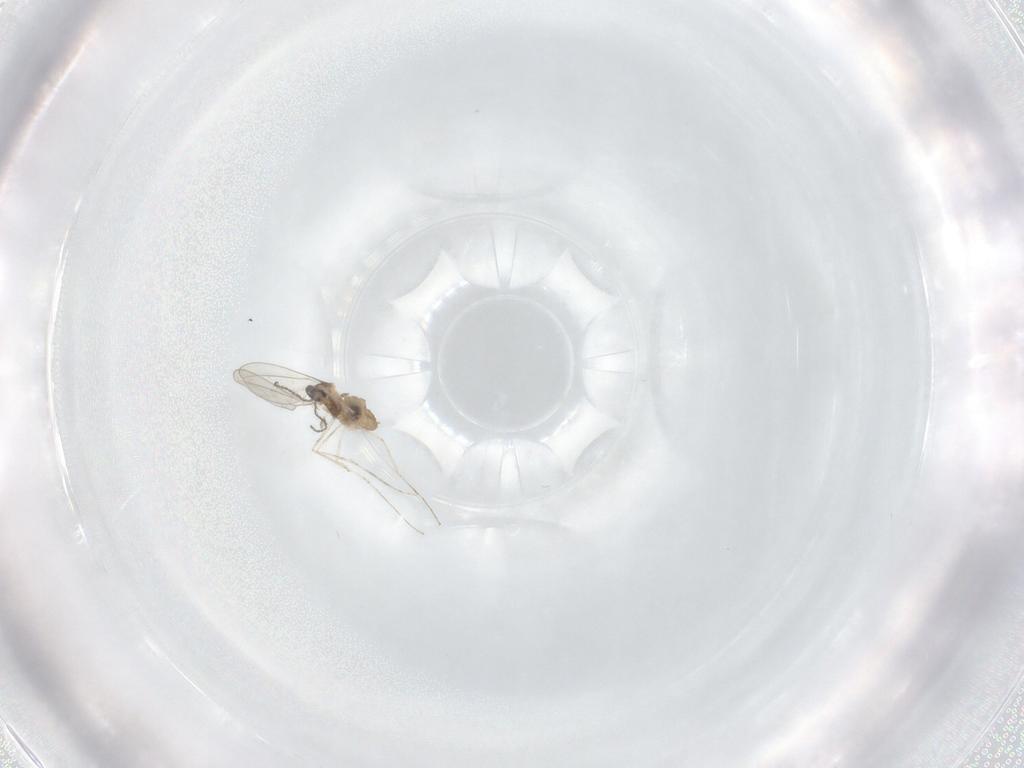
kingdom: Animalia
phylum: Arthropoda
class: Insecta
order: Diptera
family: Cecidomyiidae
